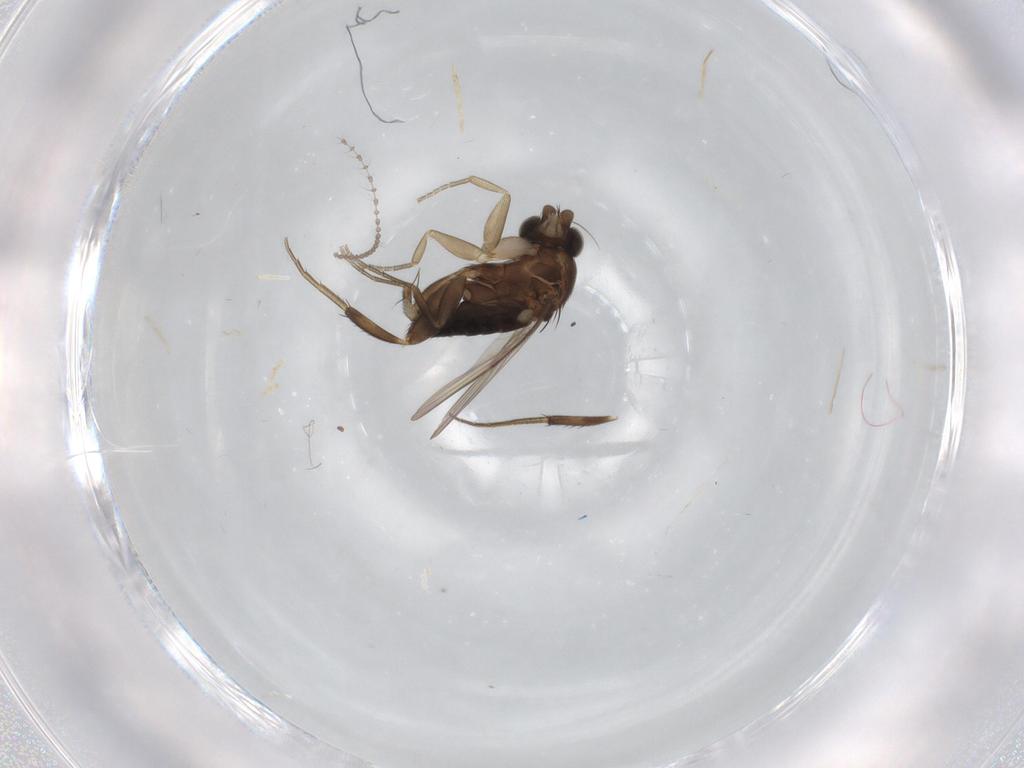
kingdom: Animalia
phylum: Arthropoda
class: Insecta
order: Diptera
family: Phoridae
